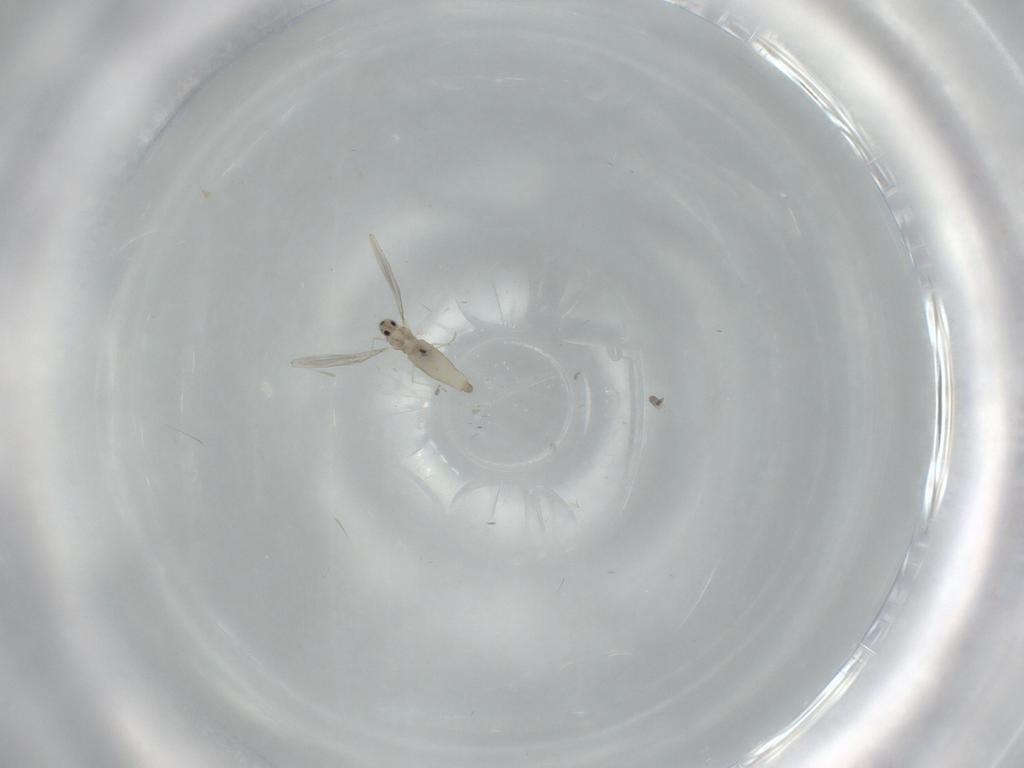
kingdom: Animalia
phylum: Arthropoda
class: Insecta
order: Diptera
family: Cecidomyiidae
